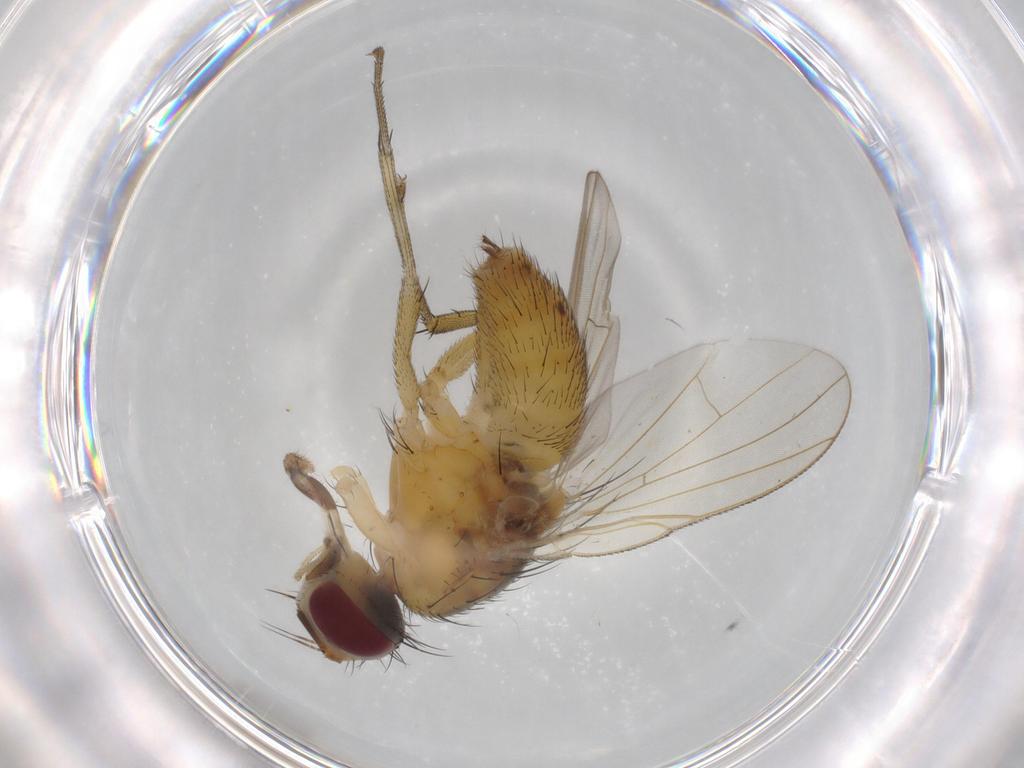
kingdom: Animalia
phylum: Arthropoda
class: Insecta
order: Diptera
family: Muscidae
